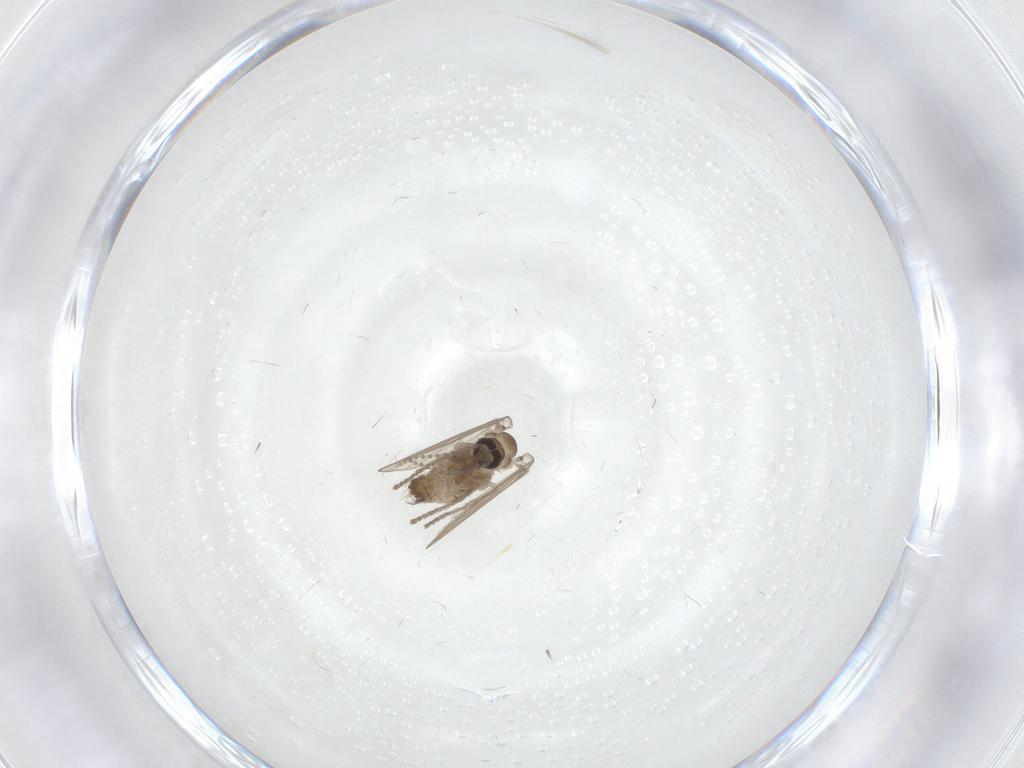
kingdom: Animalia
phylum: Arthropoda
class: Insecta
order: Diptera
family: Psychodidae
